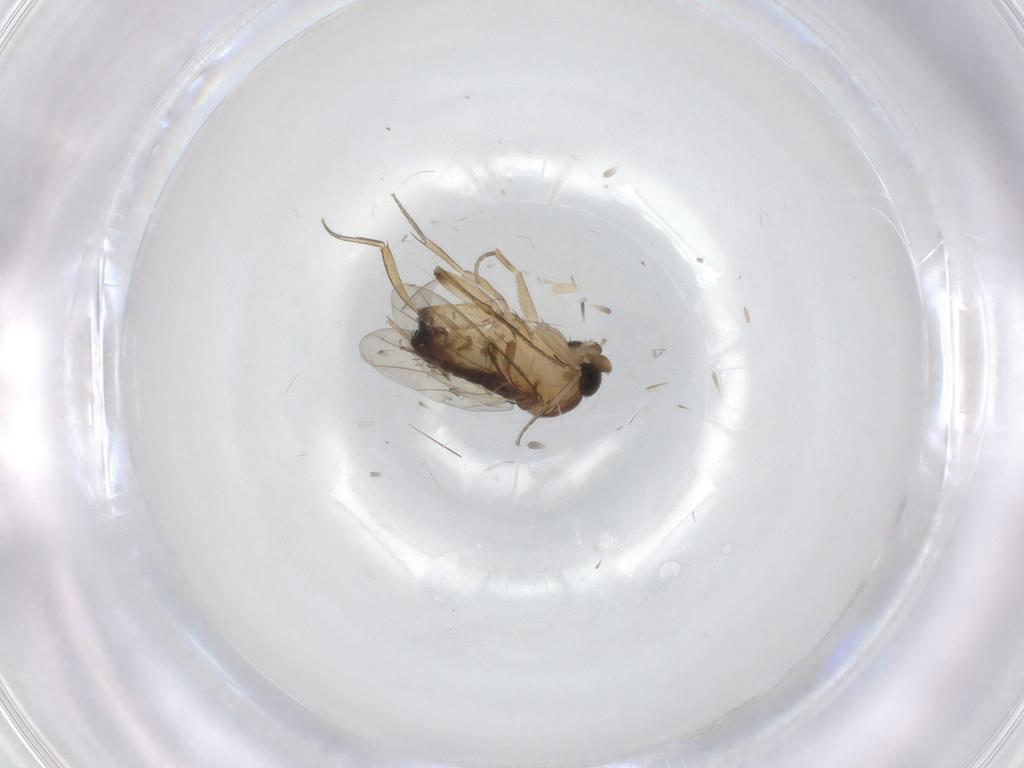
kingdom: Animalia
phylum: Arthropoda
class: Insecta
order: Diptera
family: Phoridae
